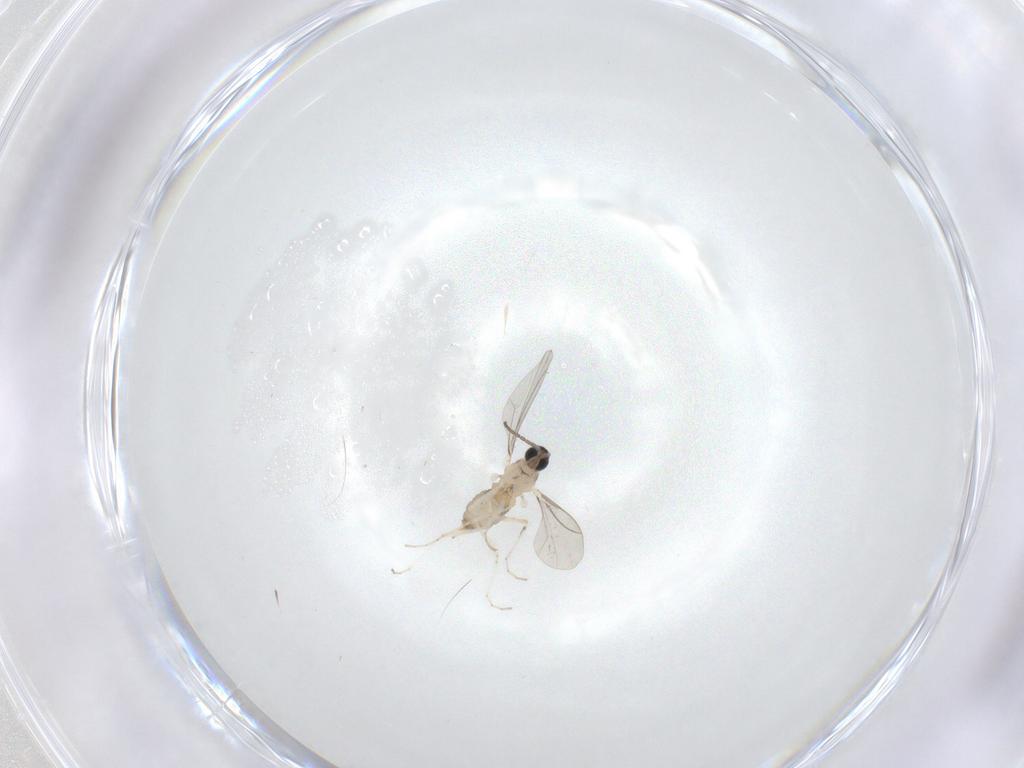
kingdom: Animalia
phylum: Arthropoda
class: Insecta
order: Diptera
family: Cecidomyiidae
